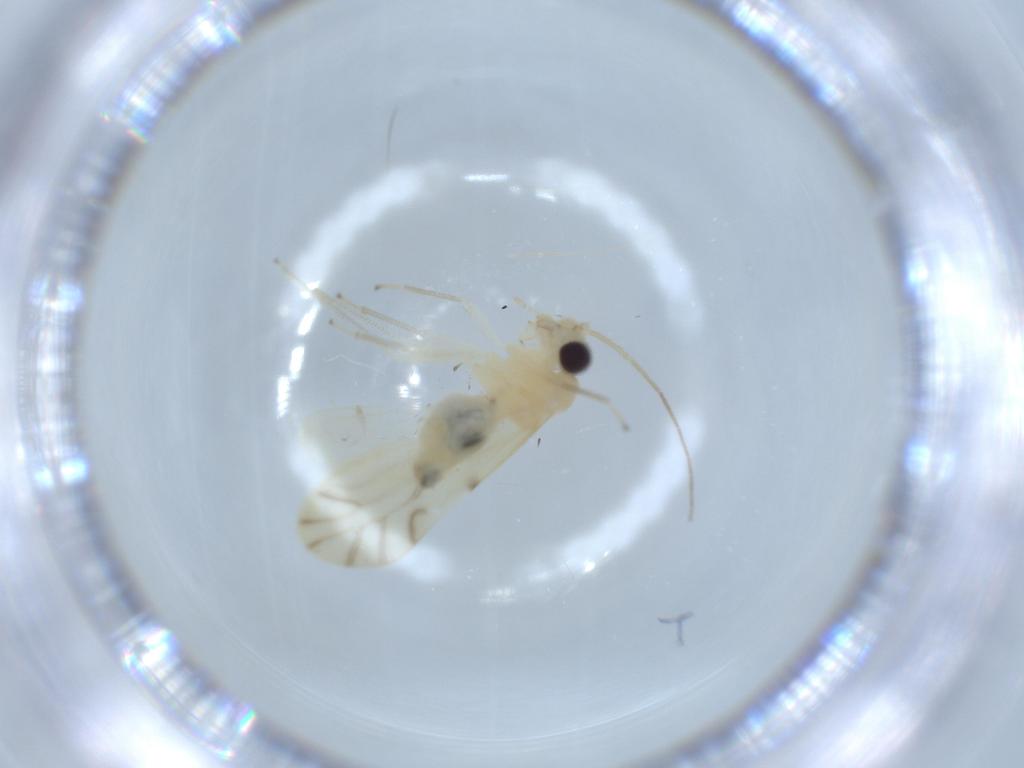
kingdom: Animalia
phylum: Arthropoda
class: Insecta
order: Psocodea
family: Caeciliusidae
